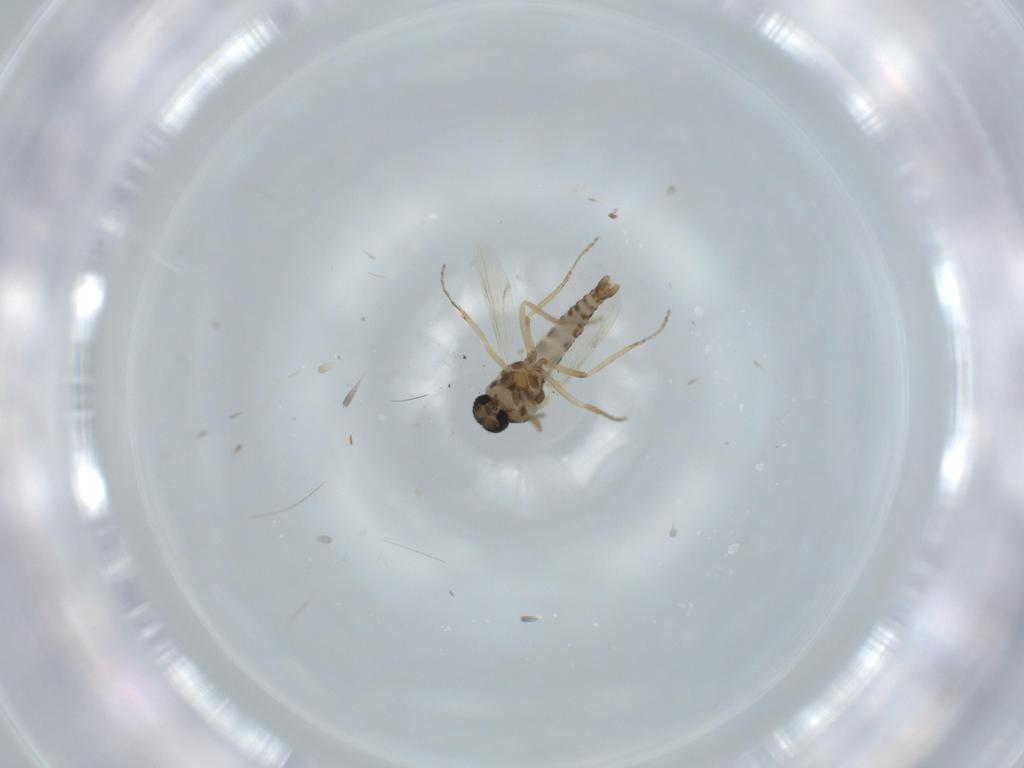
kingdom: Animalia
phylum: Arthropoda
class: Insecta
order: Diptera
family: Ceratopogonidae
